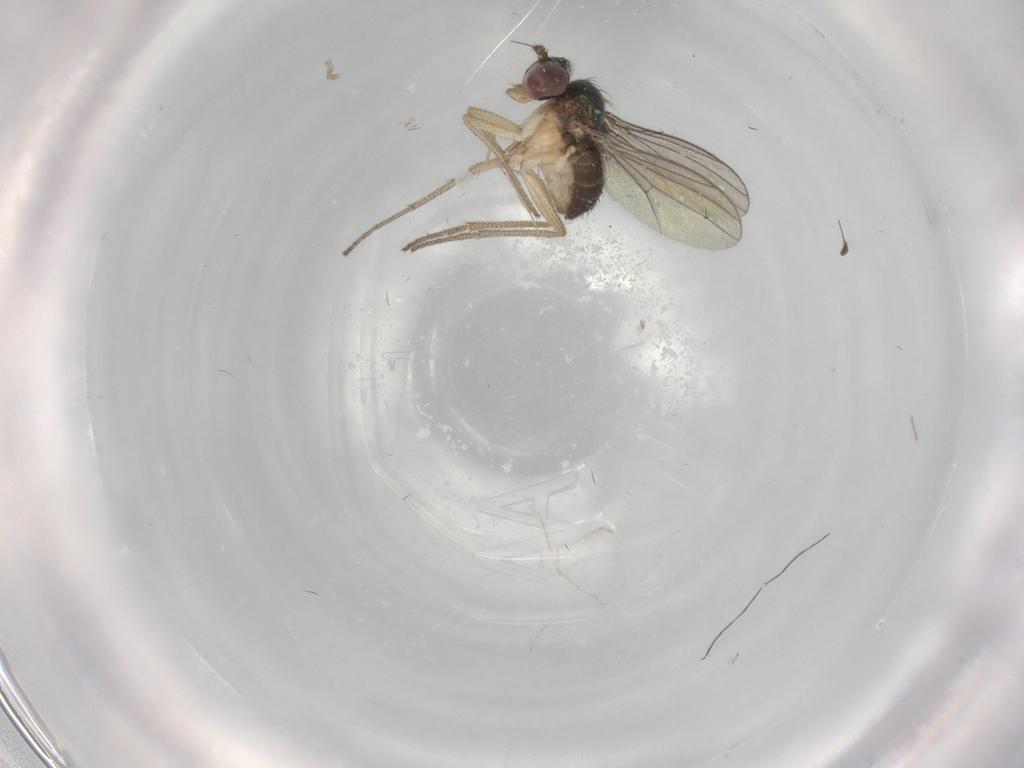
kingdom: Animalia
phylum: Arthropoda
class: Insecta
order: Diptera
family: Dolichopodidae
